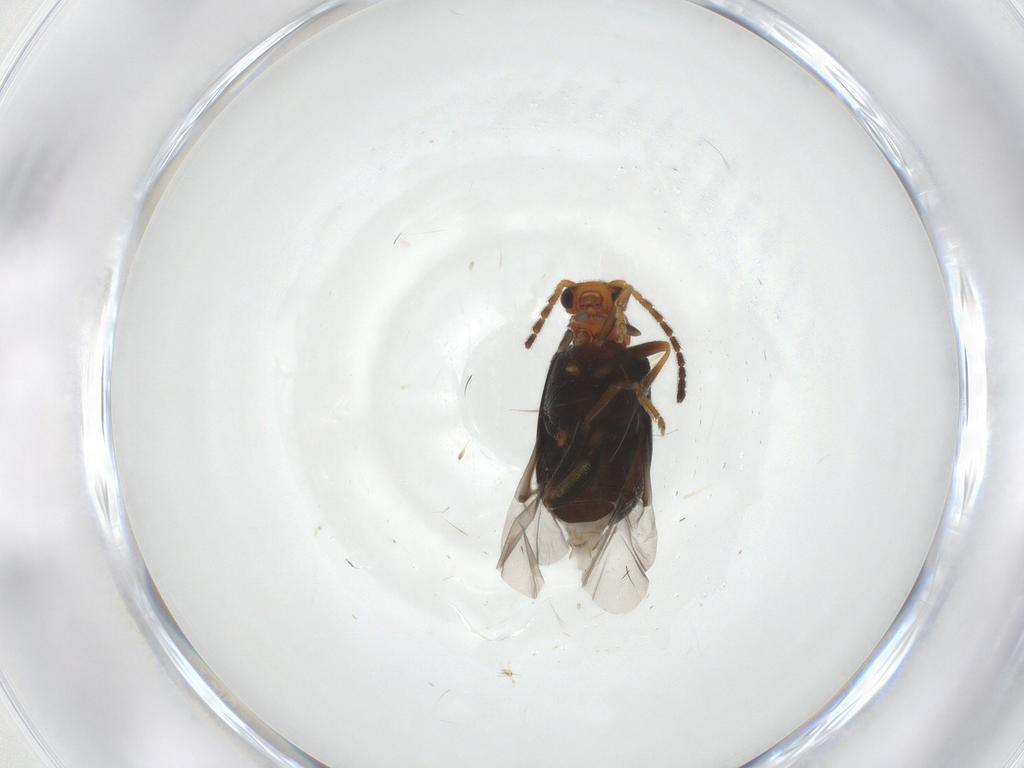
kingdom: Animalia
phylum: Arthropoda
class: Insecta
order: Coleoptera
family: Aderidae
